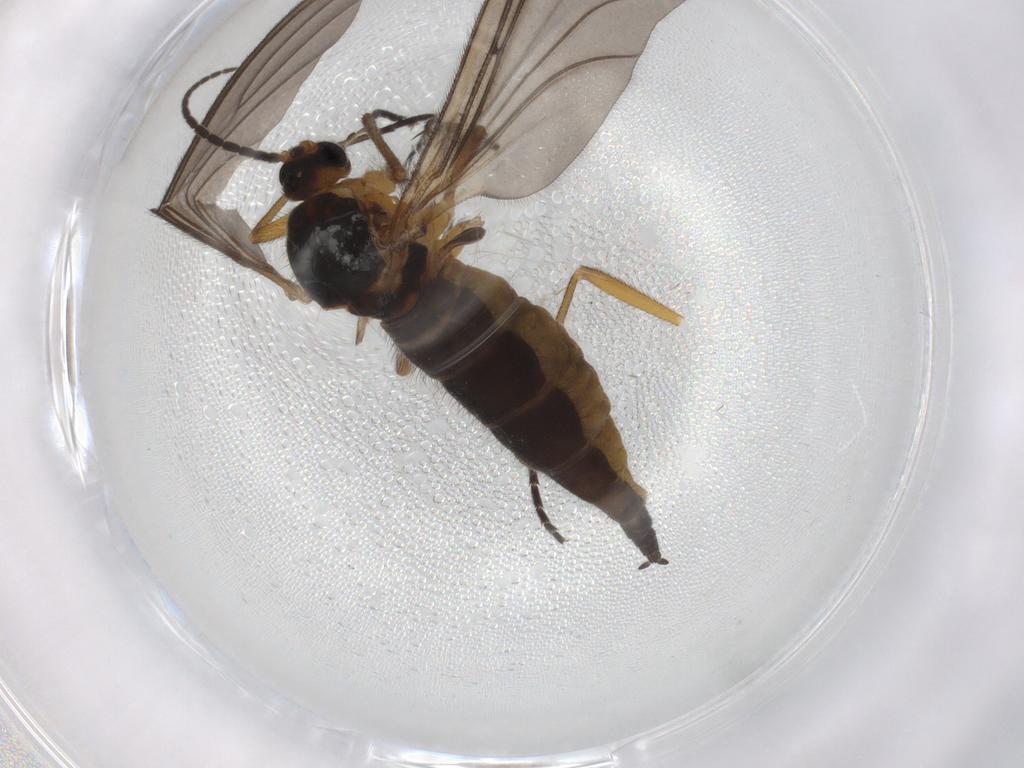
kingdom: Animalia
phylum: Arthropoda
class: Insecta
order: Diptera
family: Sciaridae
